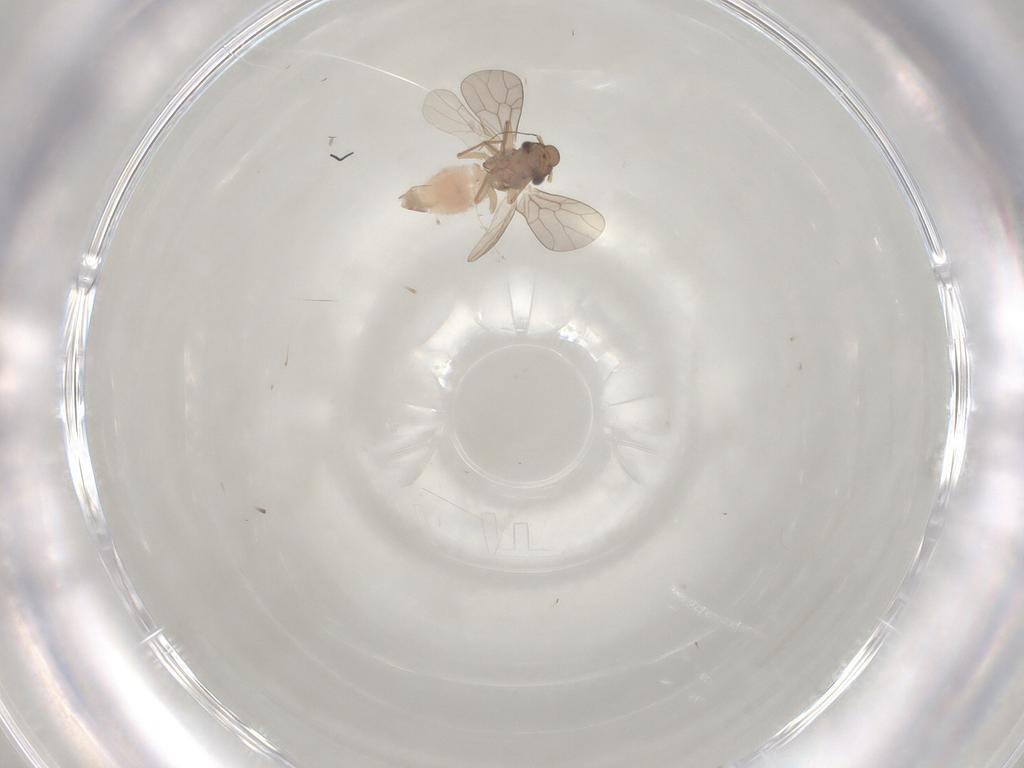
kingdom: Animalia
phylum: Arthropoda
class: Insecta
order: Psocodea
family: Lepidopsocidae
